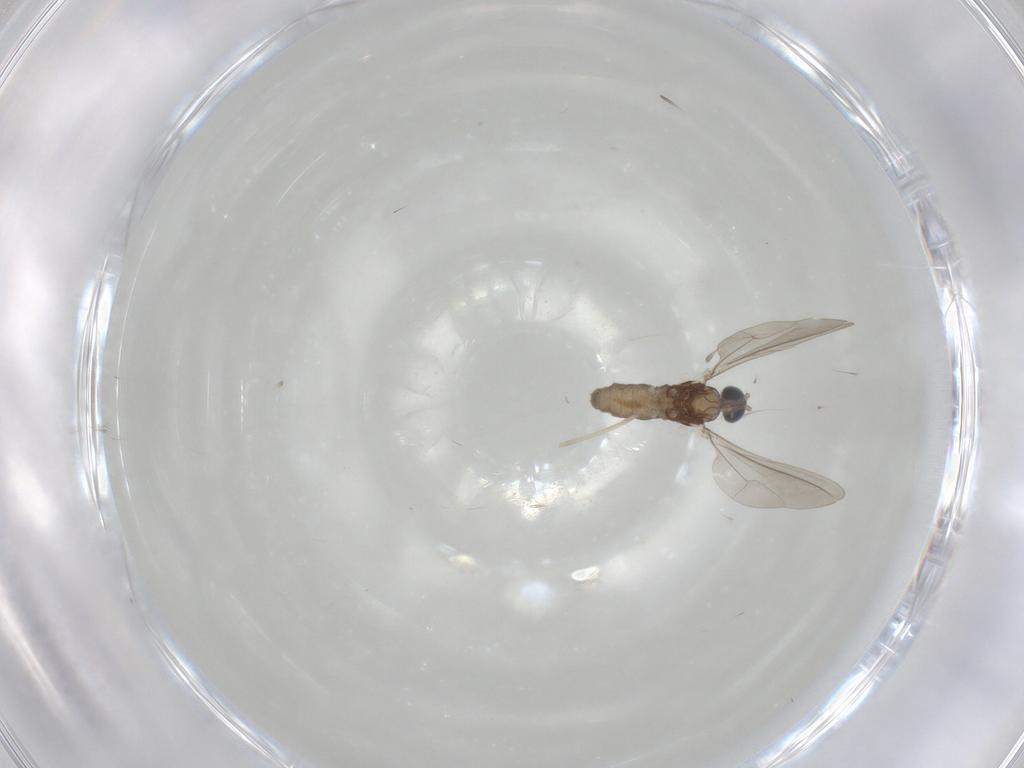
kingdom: Animalia
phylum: Arthropoda
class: Insecta
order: Diptera
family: Cecidomyiidae
